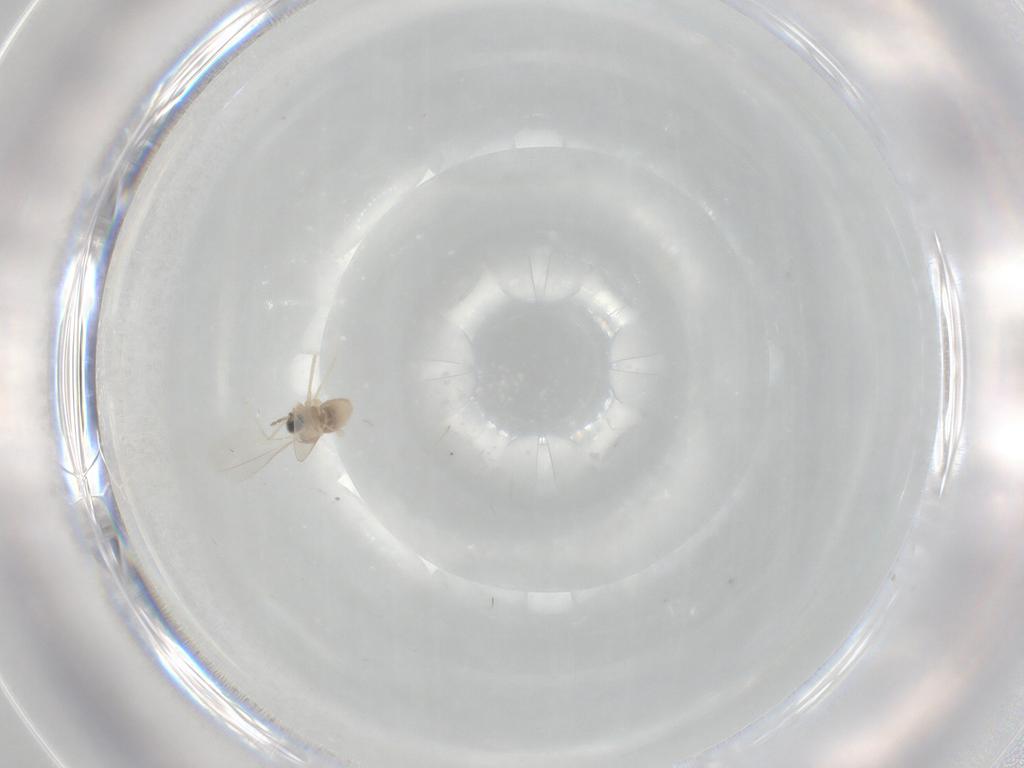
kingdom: Animalia
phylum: Arthropoda
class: Insecta
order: Diptera
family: Cecidomyiidae
